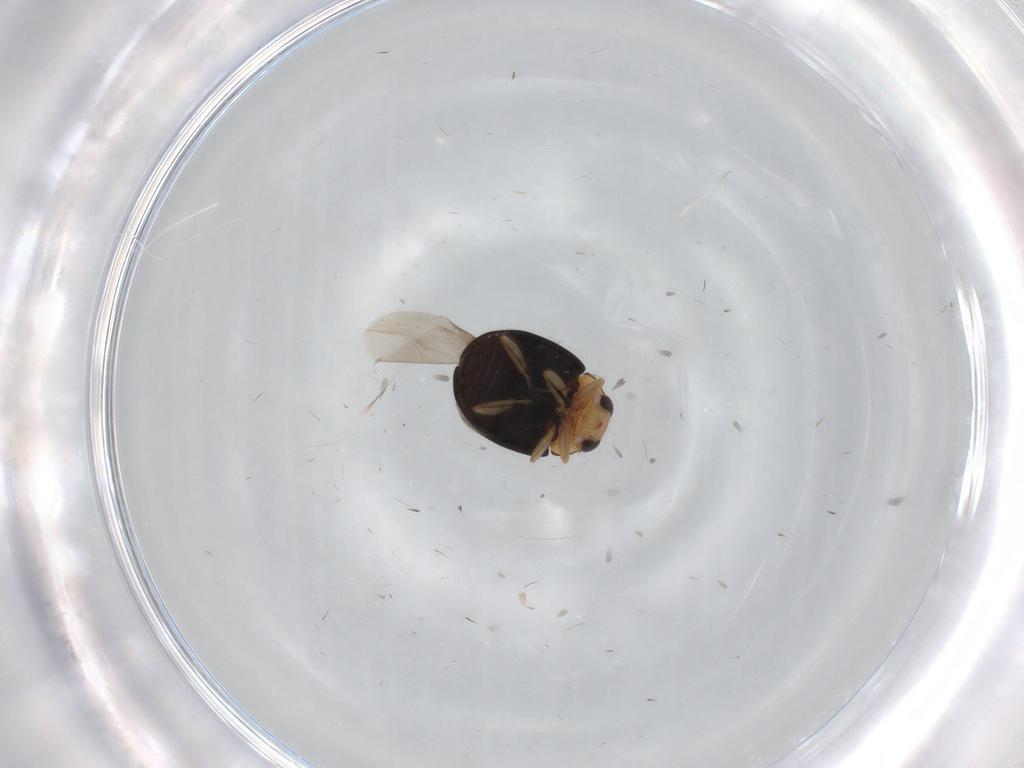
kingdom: Animalia
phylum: Arthropoda
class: Insecta
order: Coleoptera
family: Coccinellidae
